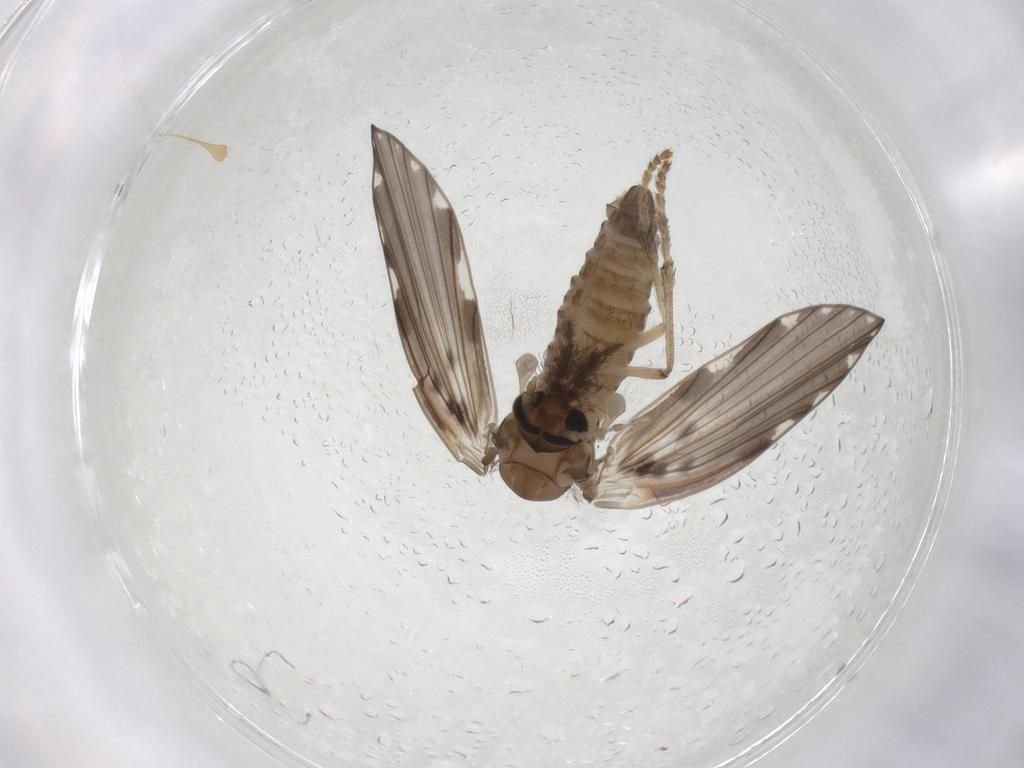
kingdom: Animalia
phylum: Arthropoda
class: Insecta
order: Diptera
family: Psychodidae
